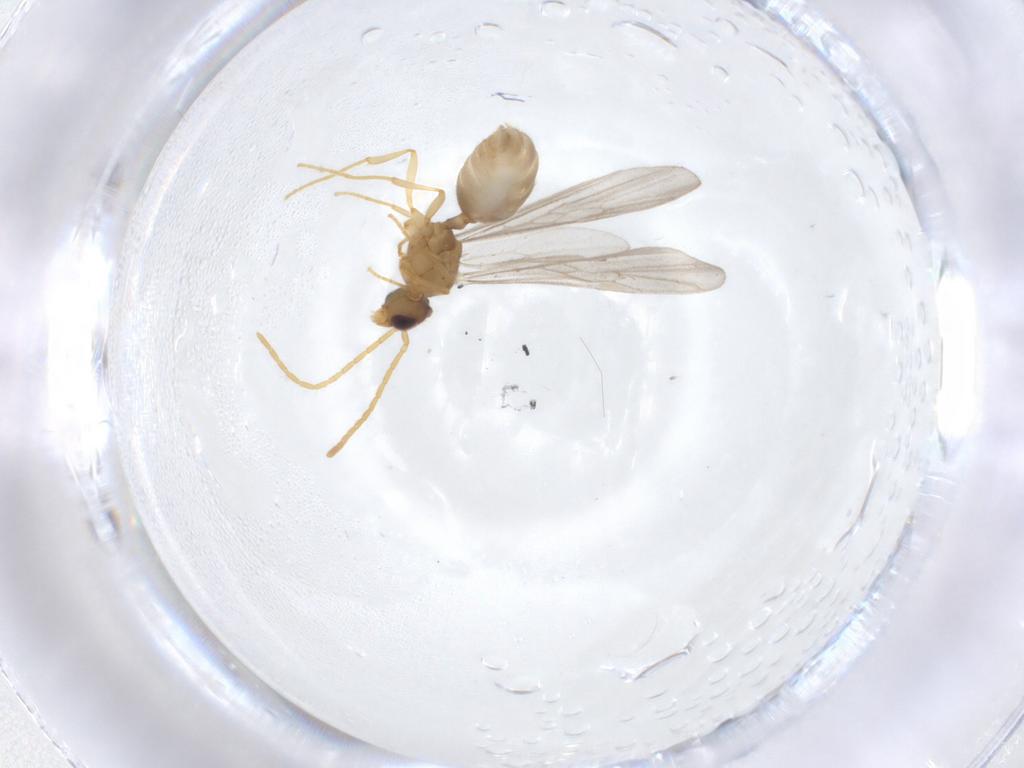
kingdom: Animalia
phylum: Arthropoda
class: Insecta
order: Hymenoptera
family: Formicidae
